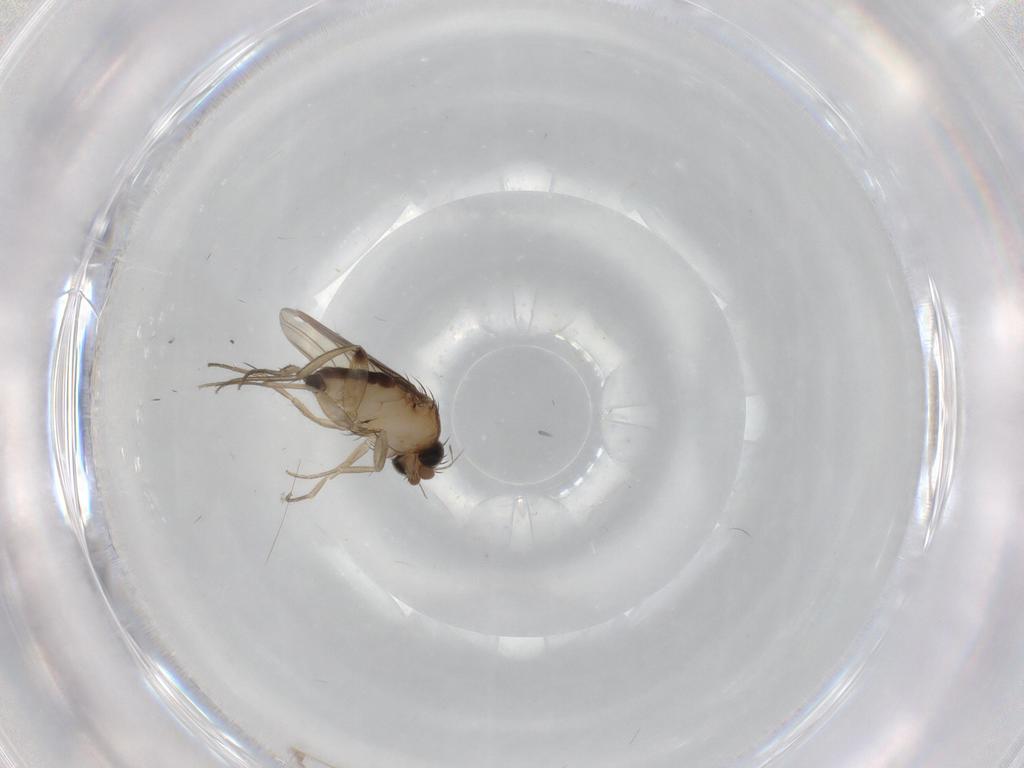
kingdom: Animalia
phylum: Arthropoda
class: Insecta
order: Diptera
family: Phoridae
